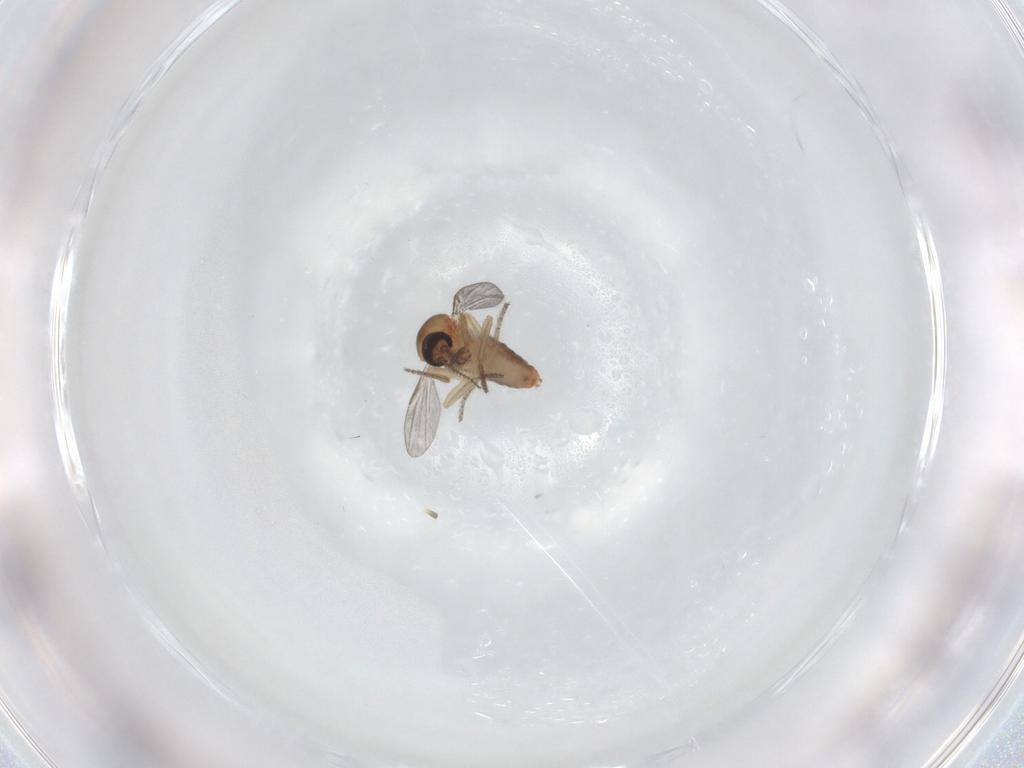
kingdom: Animalia
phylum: Arthropoda
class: Insecta
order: Diptera
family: Ceratopogonidae
